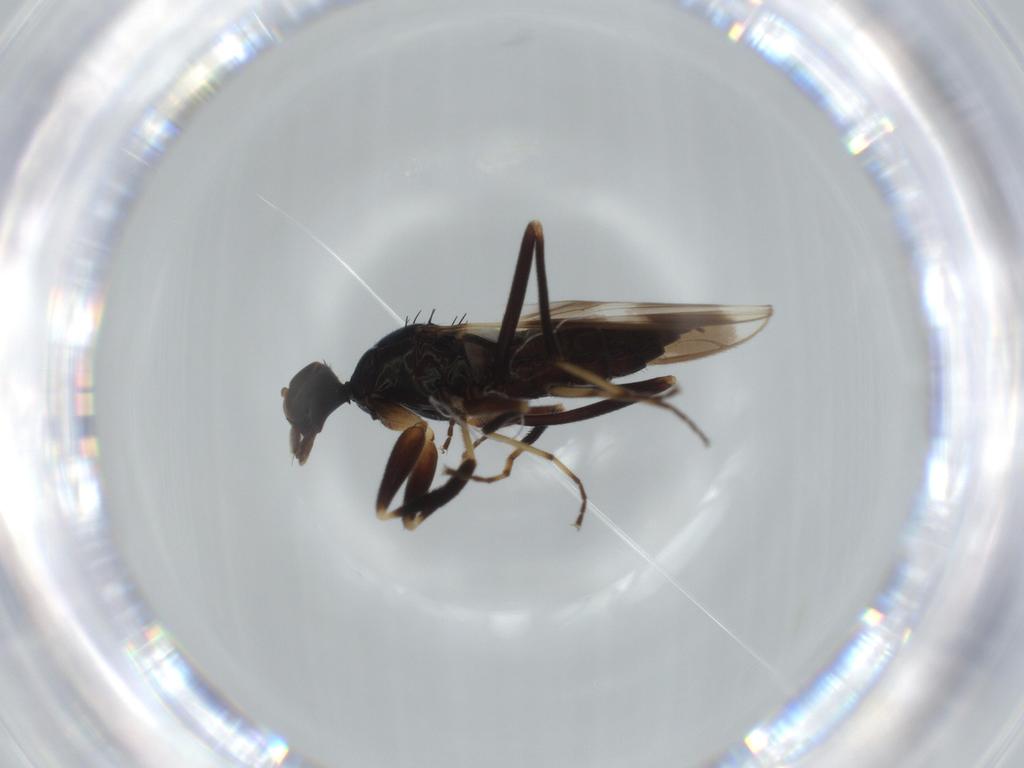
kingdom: Animalia
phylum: Arthropoda
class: Insecta
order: Diptera
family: Drosophilidae
